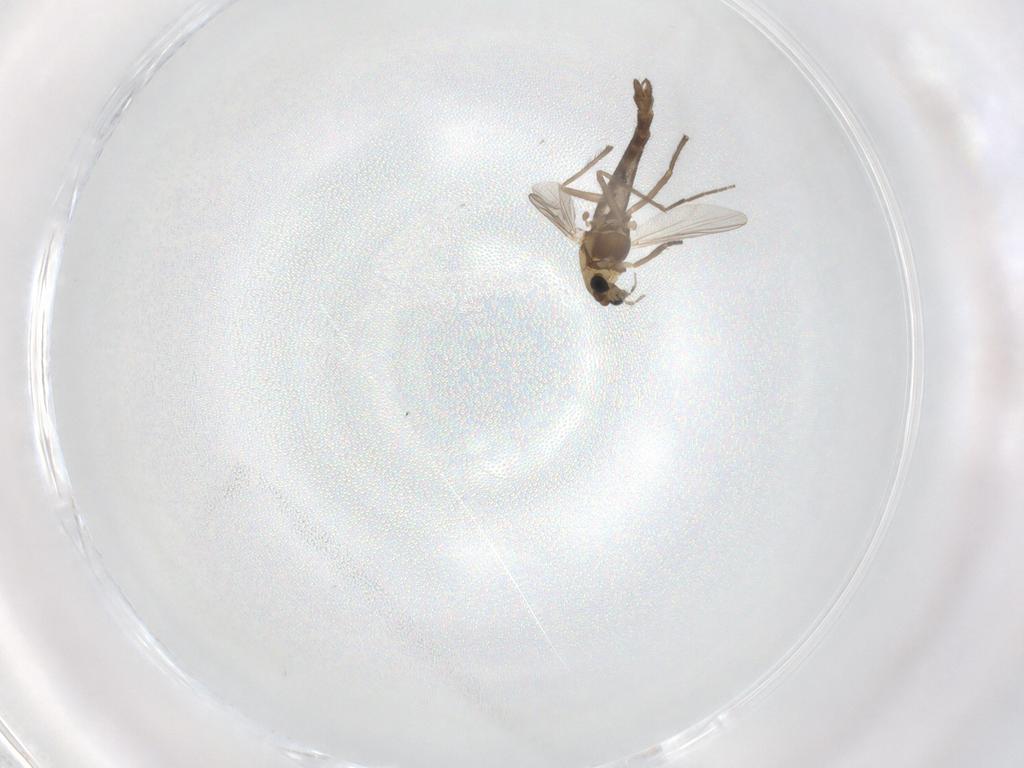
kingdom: Animalia
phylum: Arthropoda
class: Insecta
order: Diptera
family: Chironomidae
